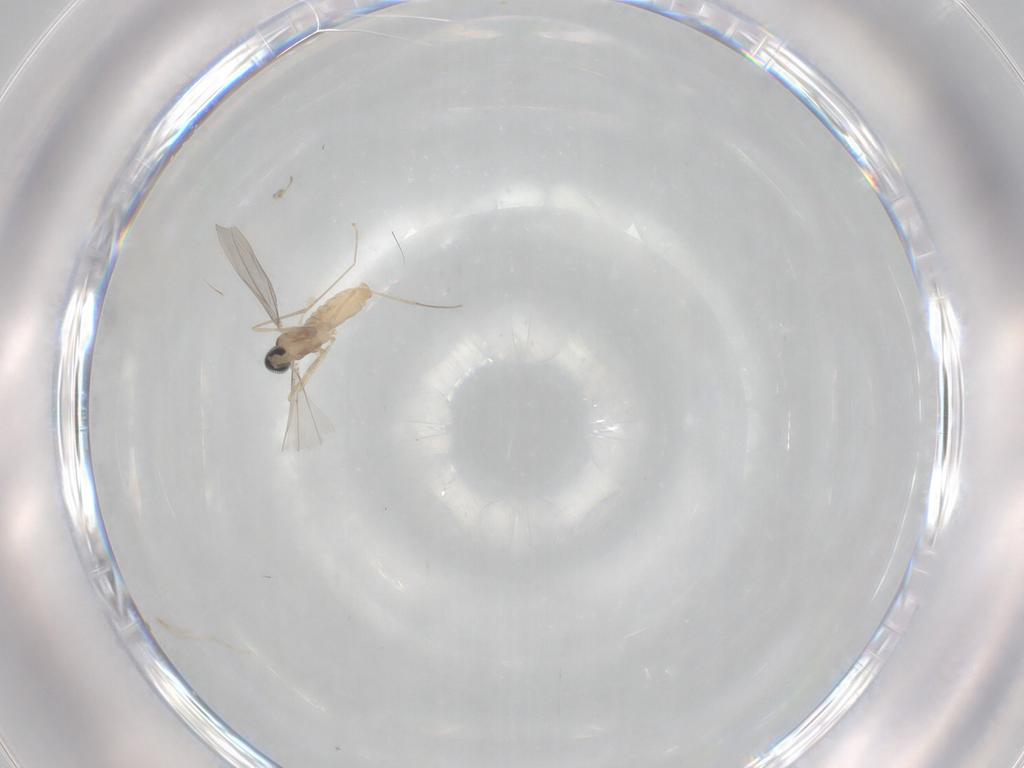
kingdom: Animalia
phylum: Arthropoda
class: Insecta
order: Diptera
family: Cecidomyiidae
